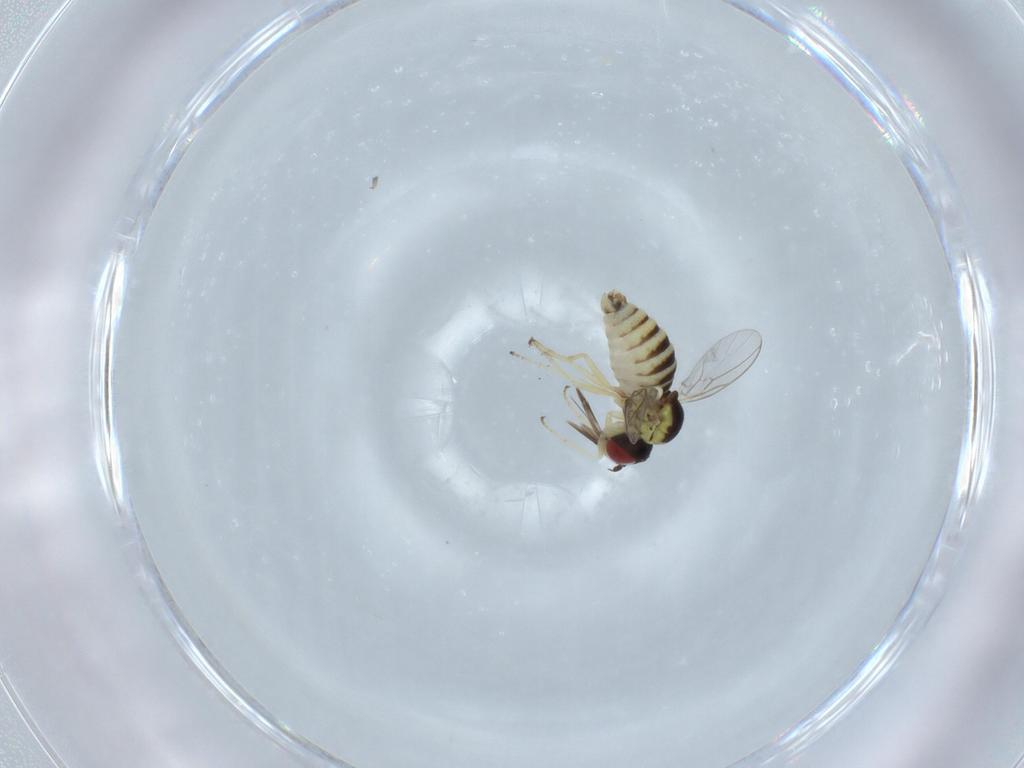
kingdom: Animalia
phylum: Arthropoda
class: Insecta
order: Diptera
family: Bombyliidae
